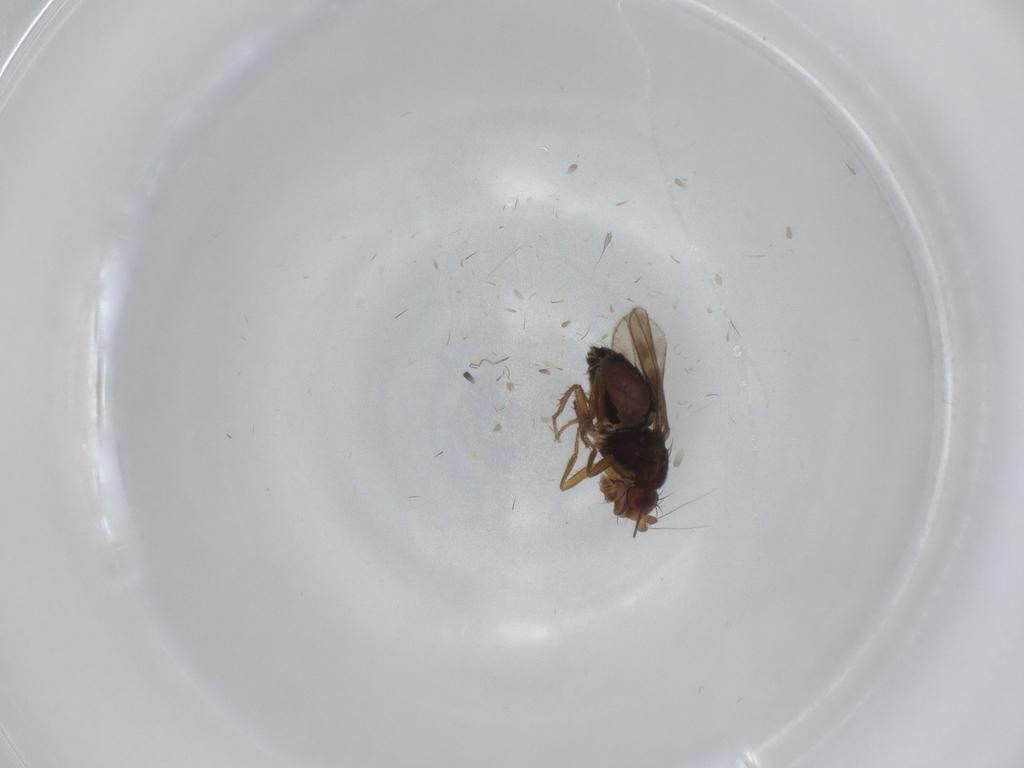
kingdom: Animalia
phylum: Arthropoda
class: Insecta
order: Diptera
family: Sphaeroceridae
